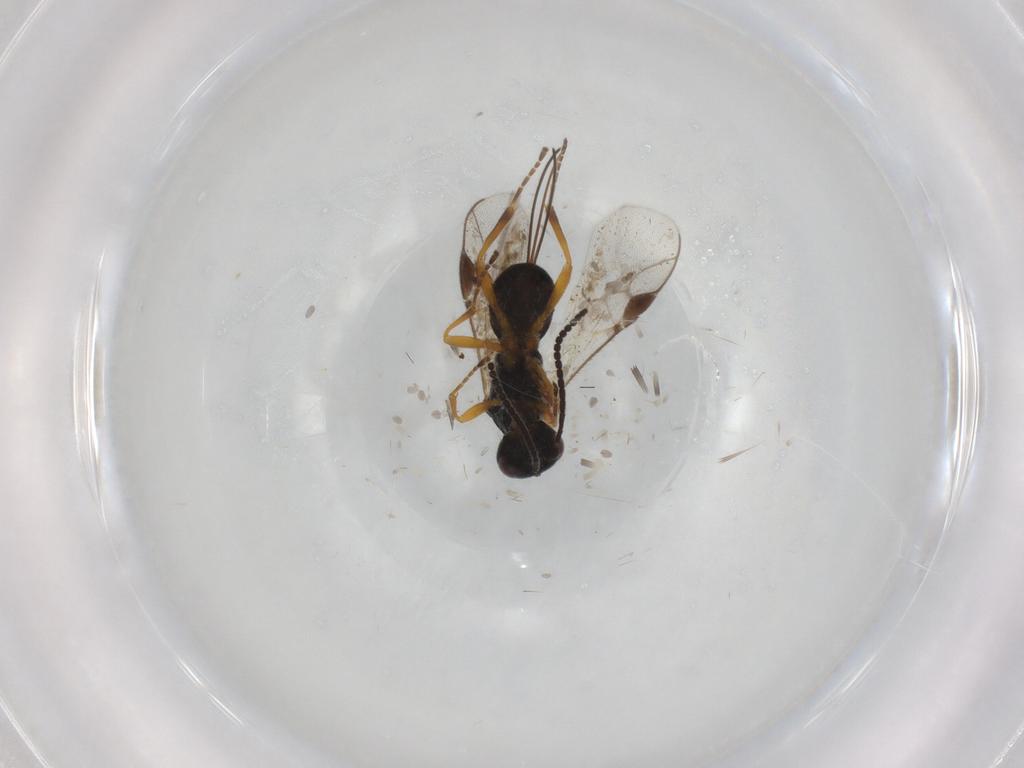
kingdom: Animalia
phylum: Arthropoda
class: Insecta
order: Hymenoptera
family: Braconidae
